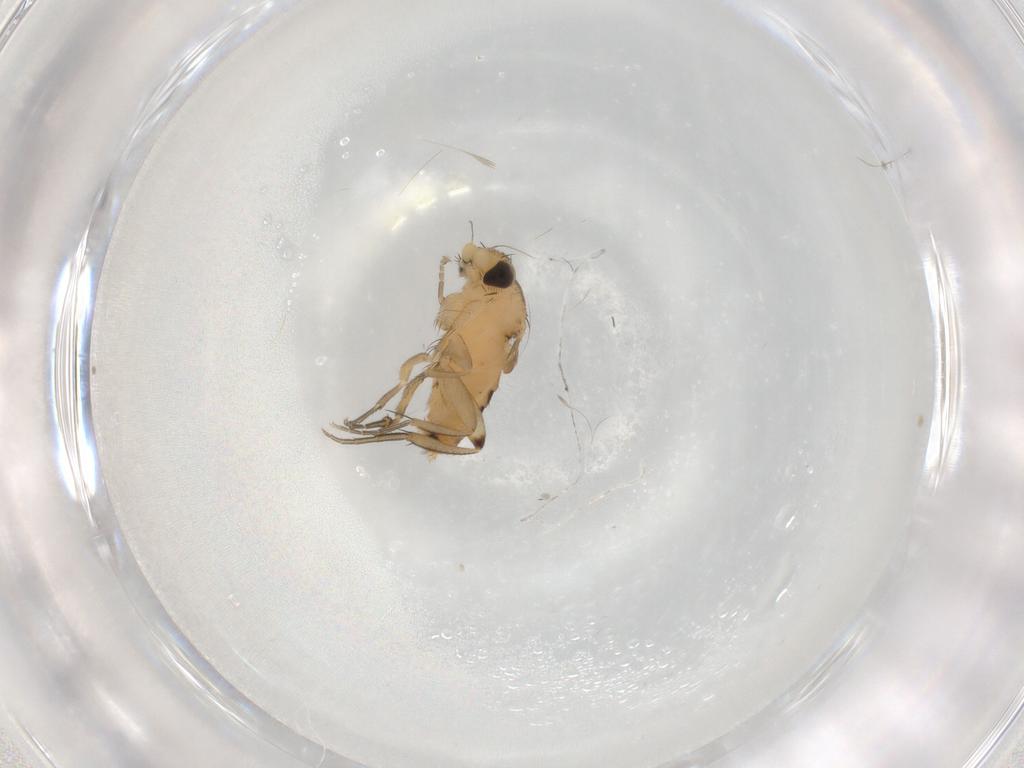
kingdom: Animalia
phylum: Arthropoda
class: Insecta
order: Diptera
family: Phoridae
